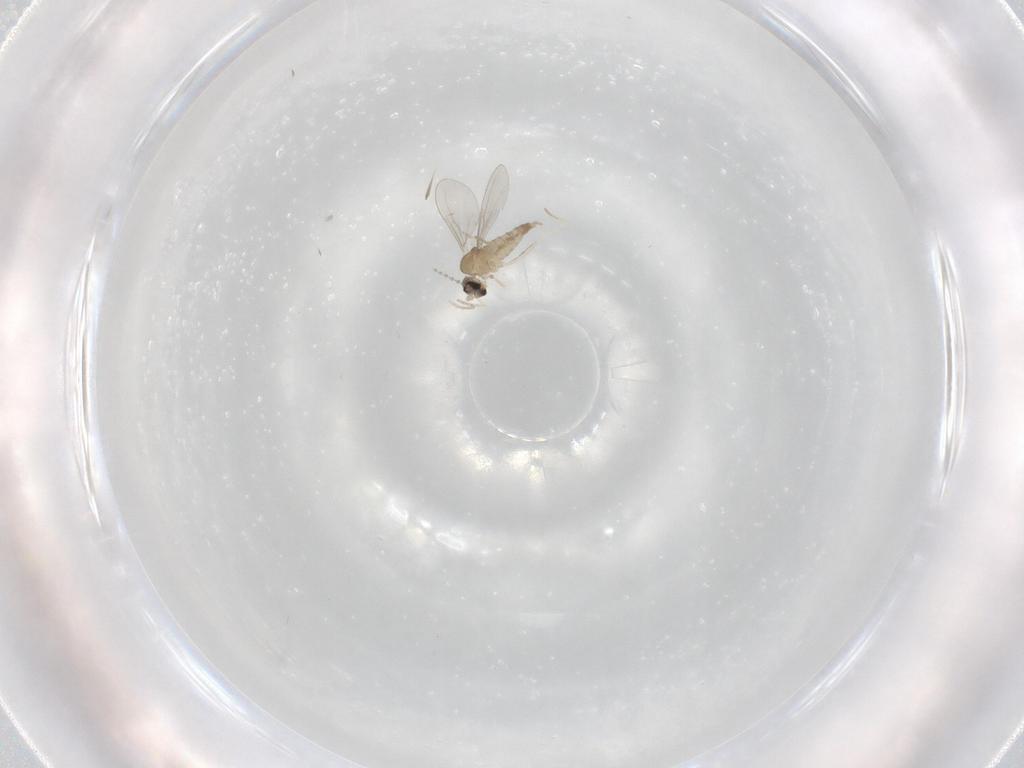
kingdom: Animalia
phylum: Arthropoda
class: Insecta
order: Diptera
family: Cecidomyiidae
